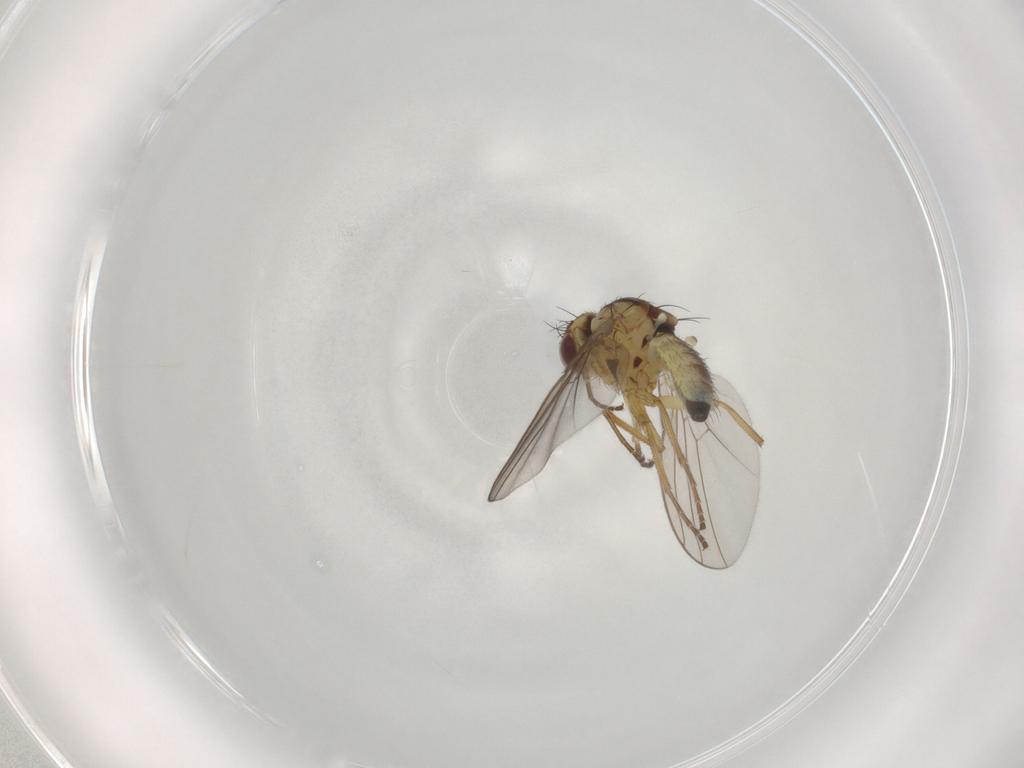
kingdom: Animalia
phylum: Arthropoda
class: Insecta
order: Diptera
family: Agromyzidae
